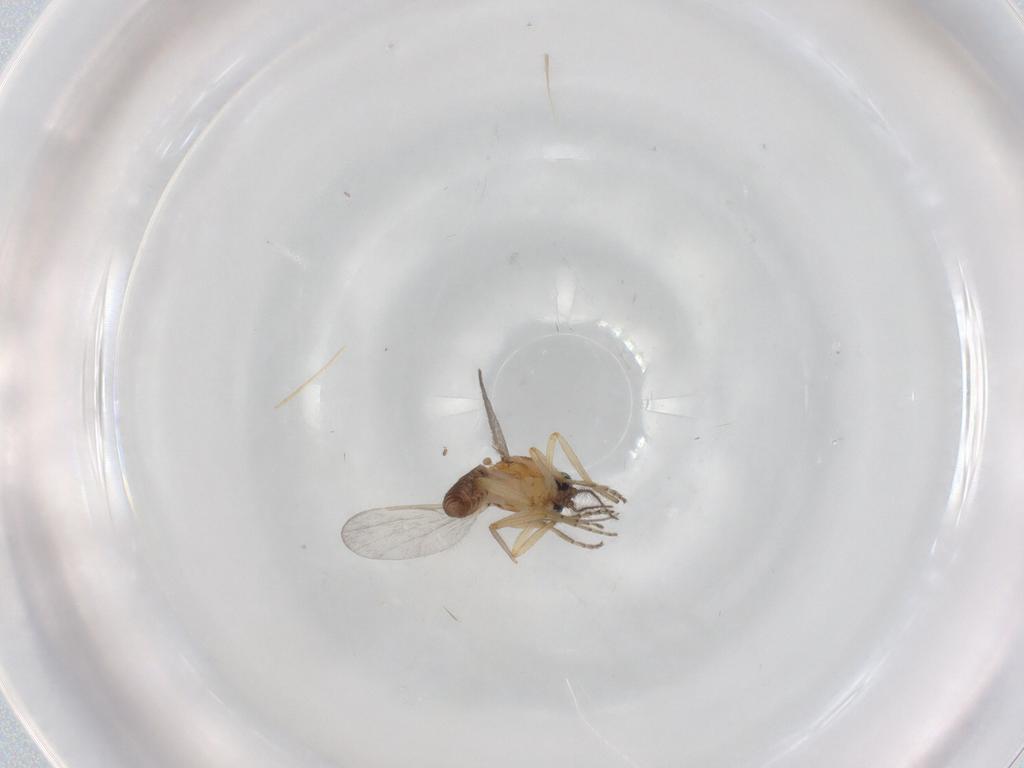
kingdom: Animalia
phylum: Arthropoda
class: Insecta
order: Diptera
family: Ceratopogonidae
